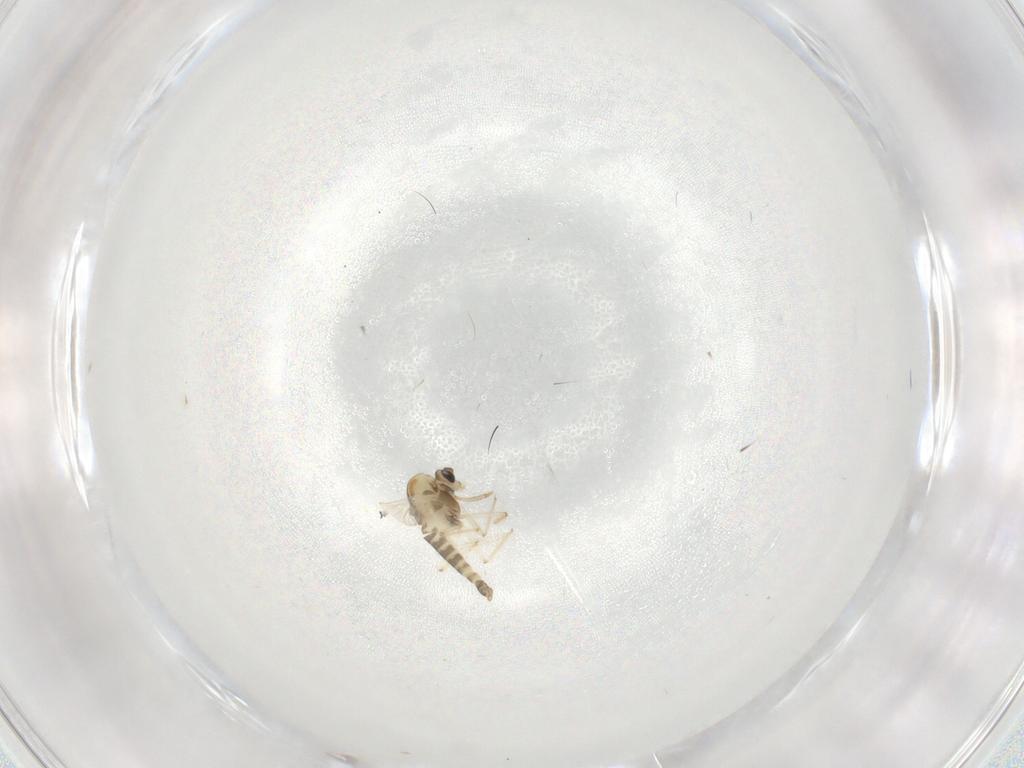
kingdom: Animalia
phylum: Arthropoda
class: Insecta
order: Diptera
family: Chironomidae
